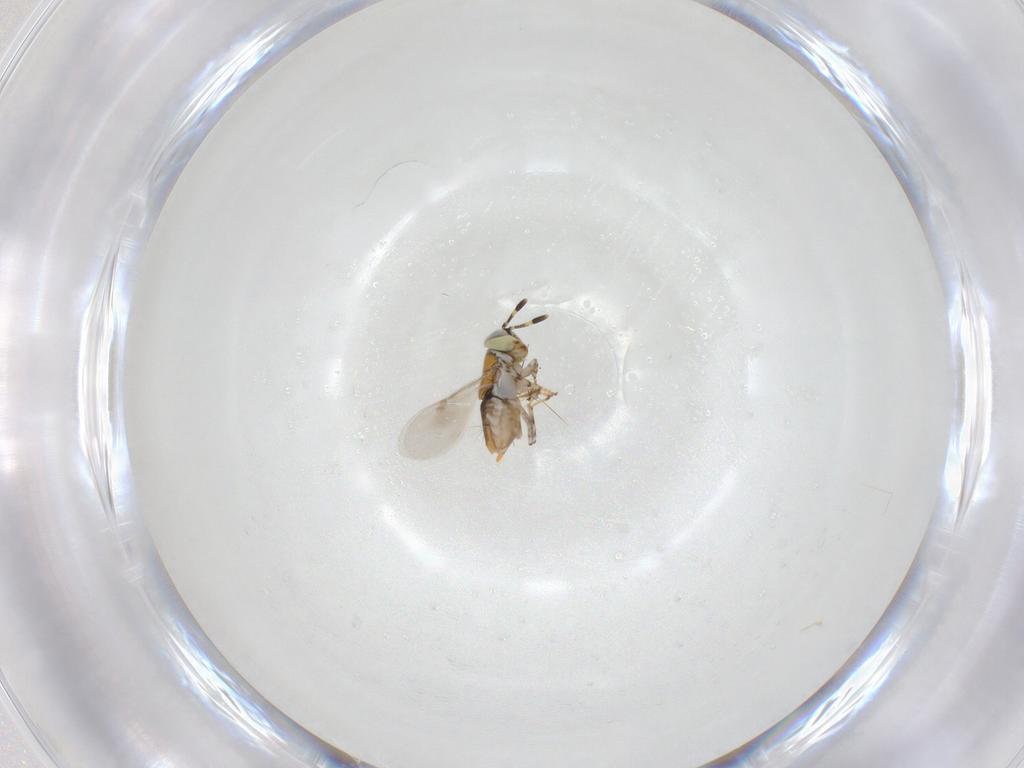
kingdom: Animalia
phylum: Arthropoda
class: Insecta
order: Hymenoptera
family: Encyrtidae
